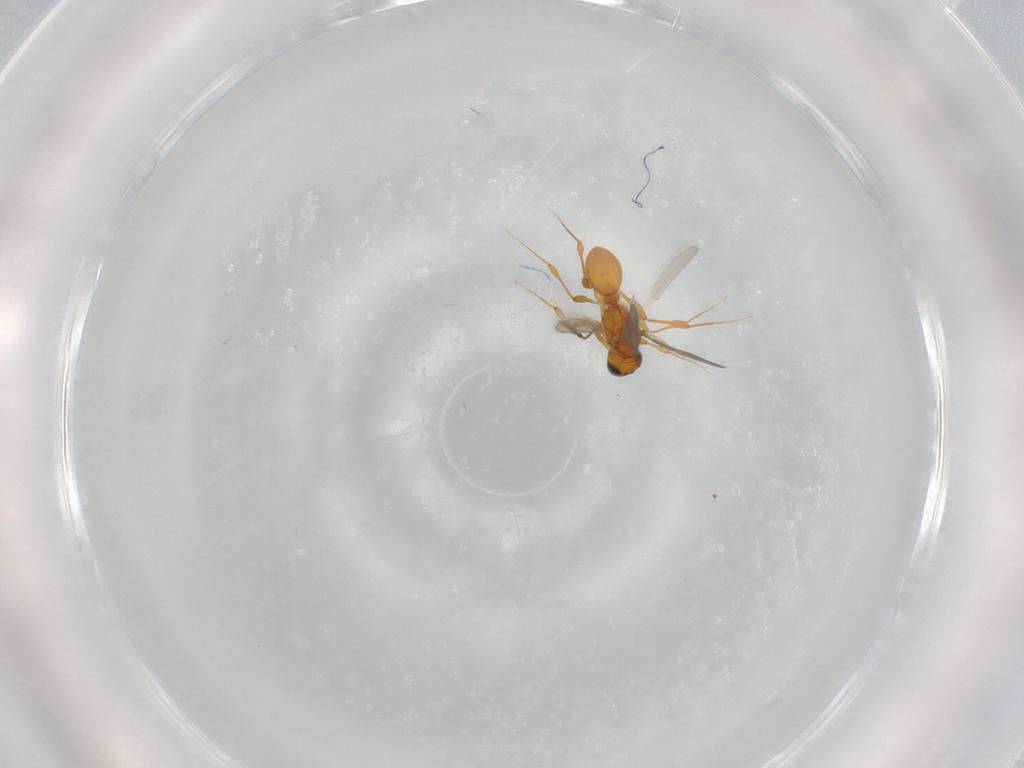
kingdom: Animalia
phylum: Arthropoda
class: Insecta
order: Hymenoptera
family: Platygastridae
